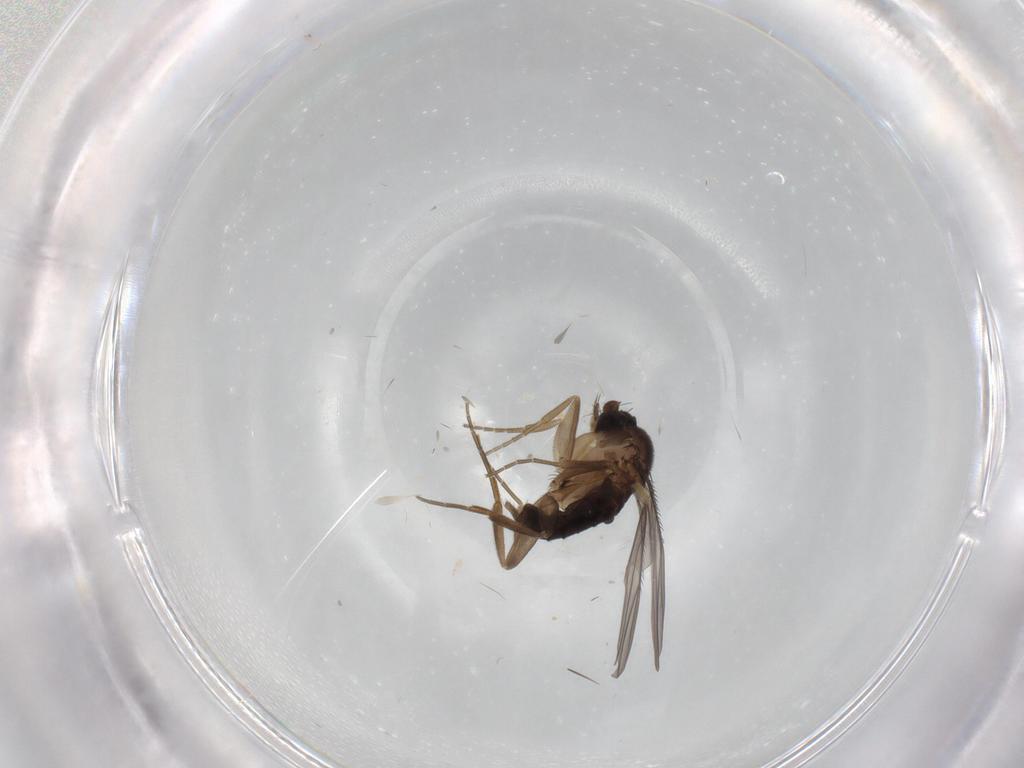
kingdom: Animalia
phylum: Arthropoda
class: Insecta
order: Diptera
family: Phoridae
